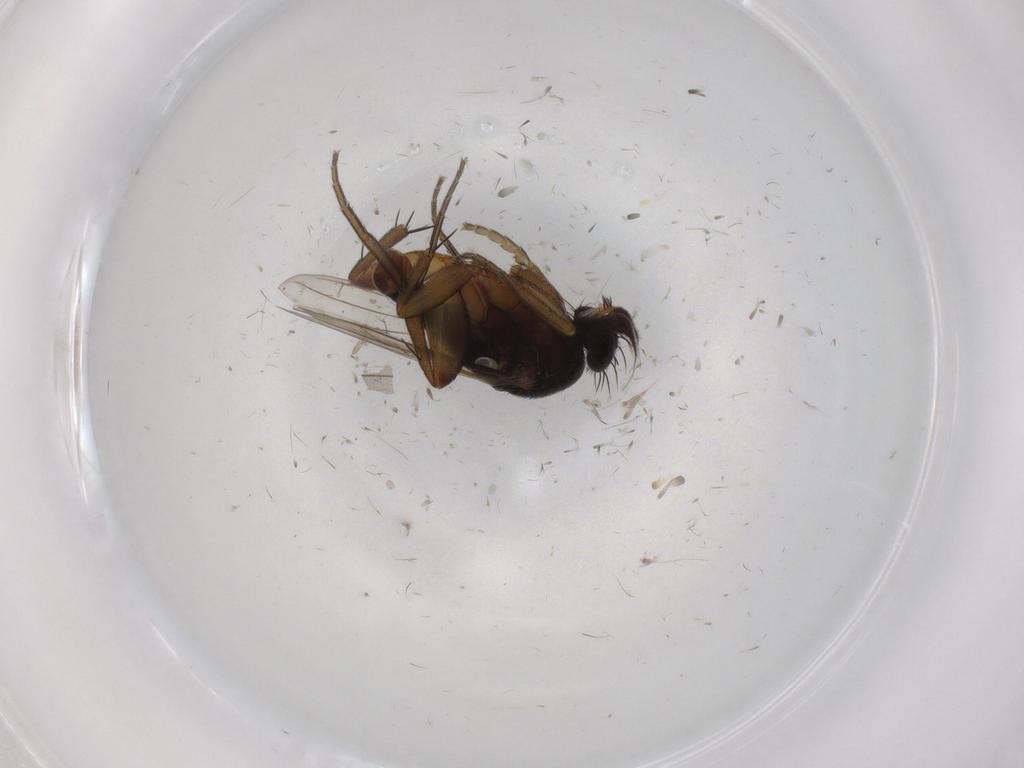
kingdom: Animalia
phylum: Arthropoda
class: Insecta
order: Diptera
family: Phoridae
